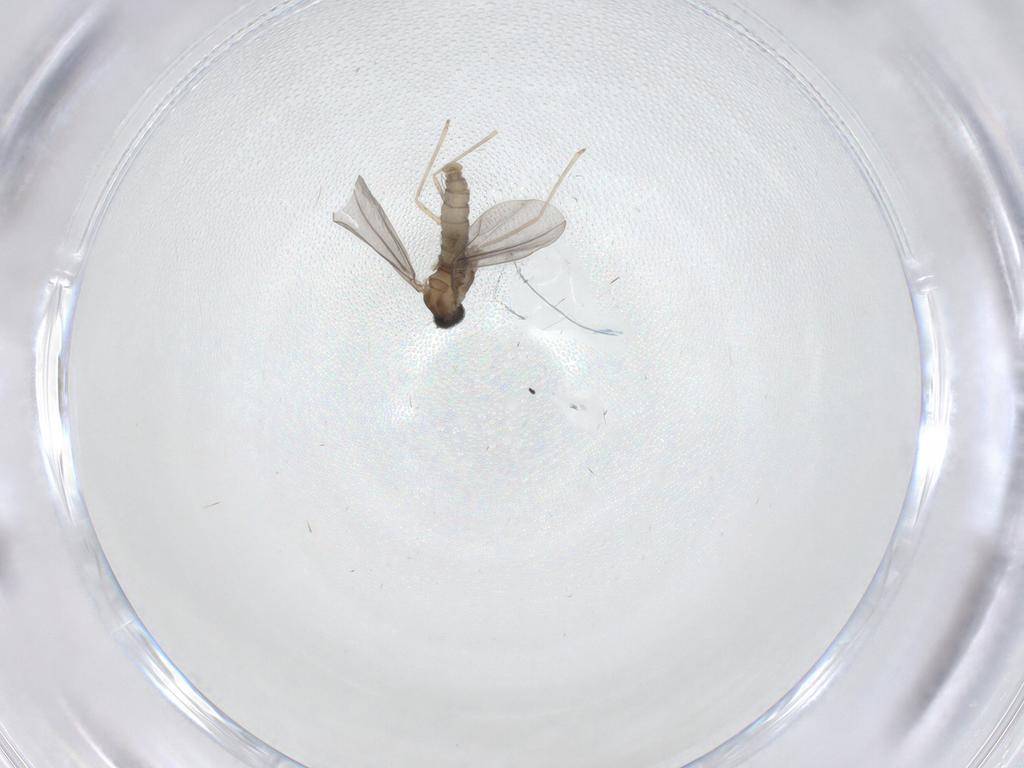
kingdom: Animalia
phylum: Arthropoda
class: Insecta
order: Diptera
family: Cecidomyiidae
